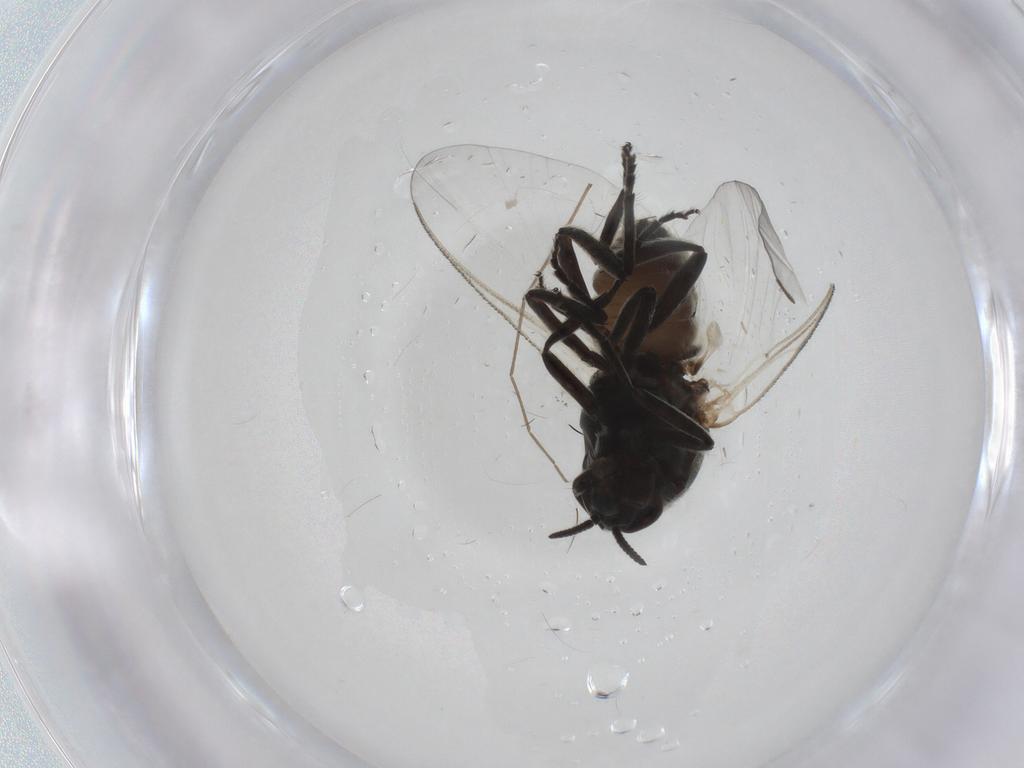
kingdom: Animalia
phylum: Arthropoda
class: Insecta
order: Diptera
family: Simuliidae
